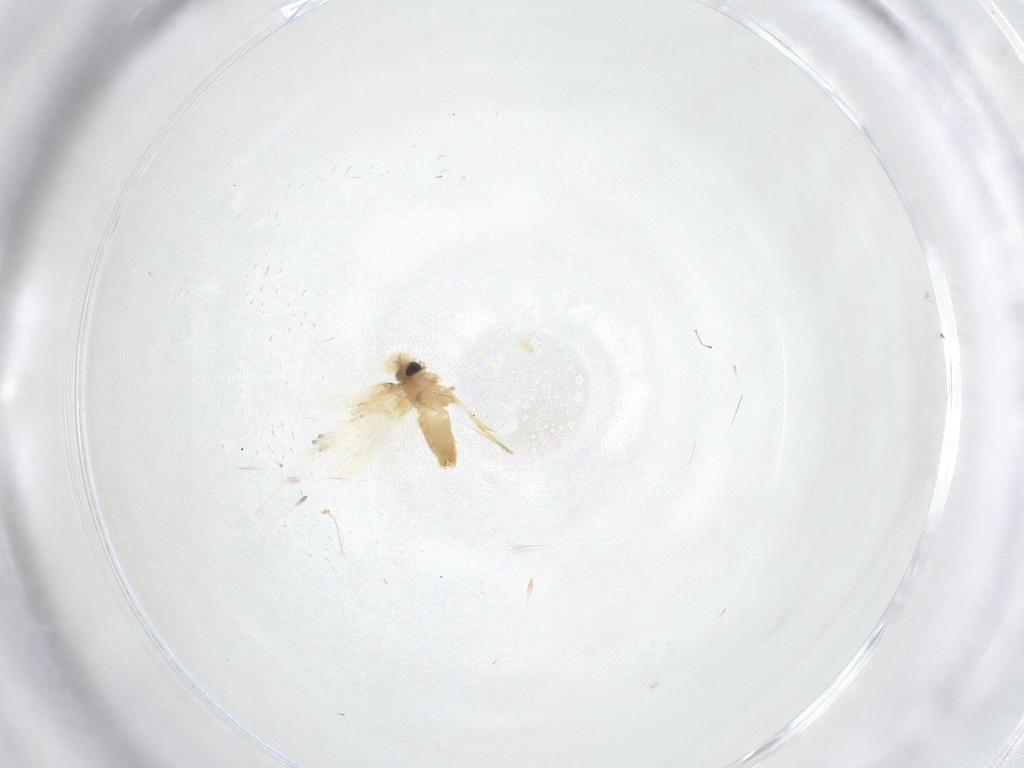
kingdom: Animalia
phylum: Arthropoda
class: Insecta
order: Lepidoptera
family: Crambidae
